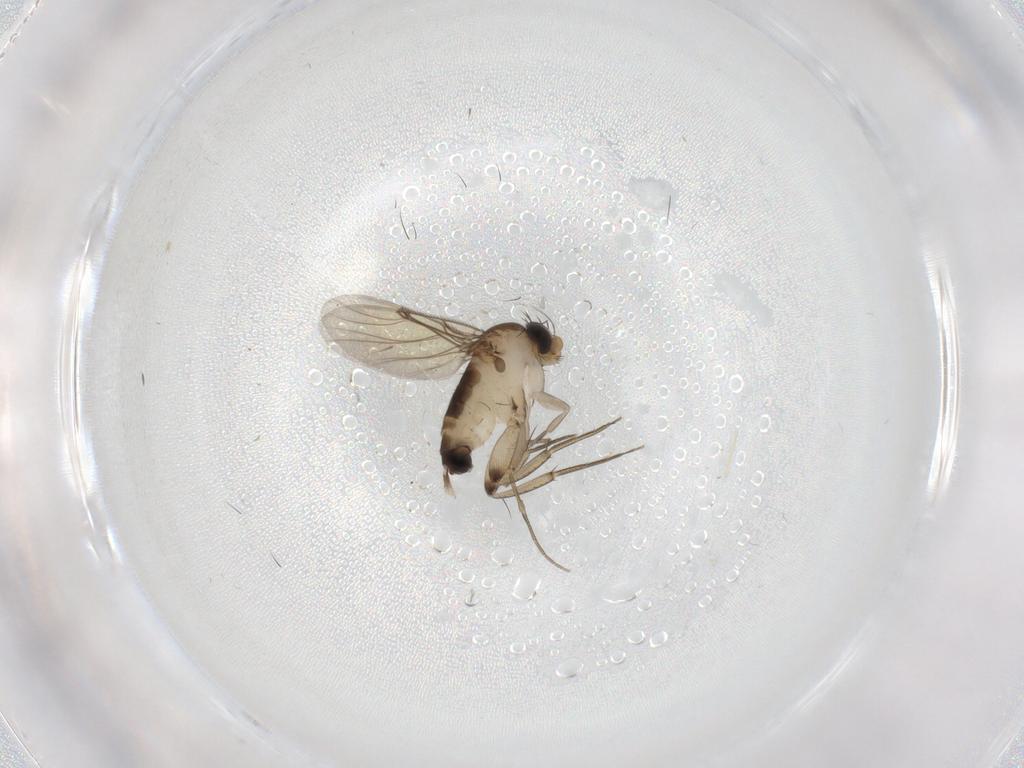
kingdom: Animalia
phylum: Arthropoda
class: Insecta
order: Diptera
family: Phoridae
